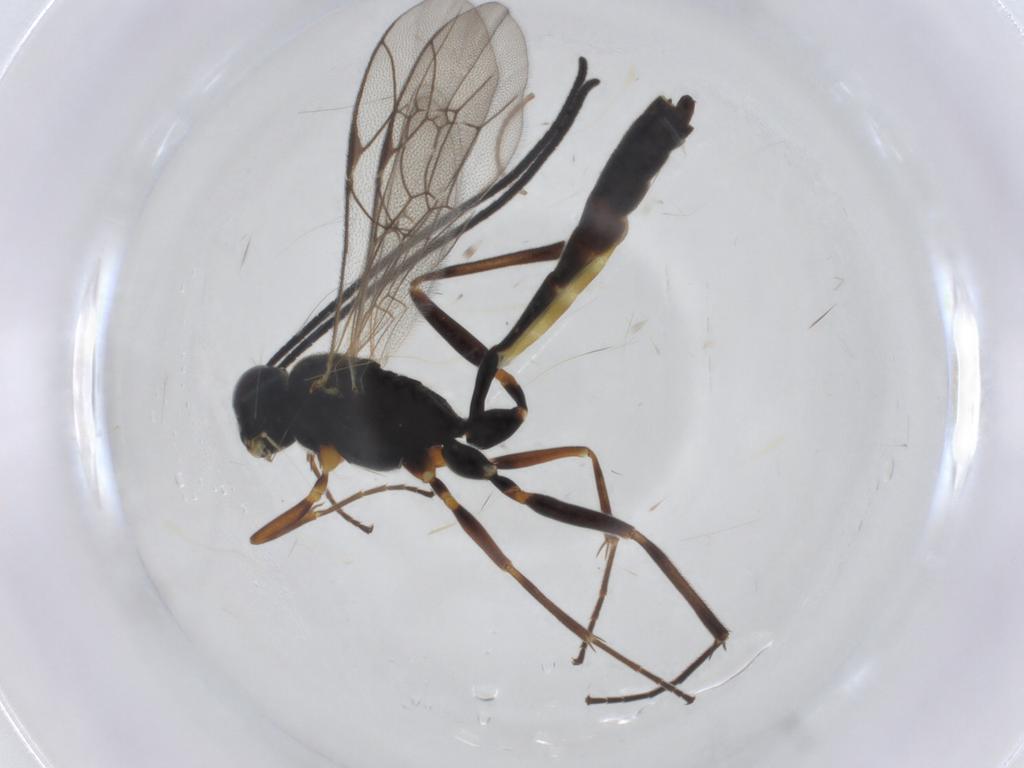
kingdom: Animalia
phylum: Arthropoda
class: Insecta
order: Hymenoptera
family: Ichneumonidae
